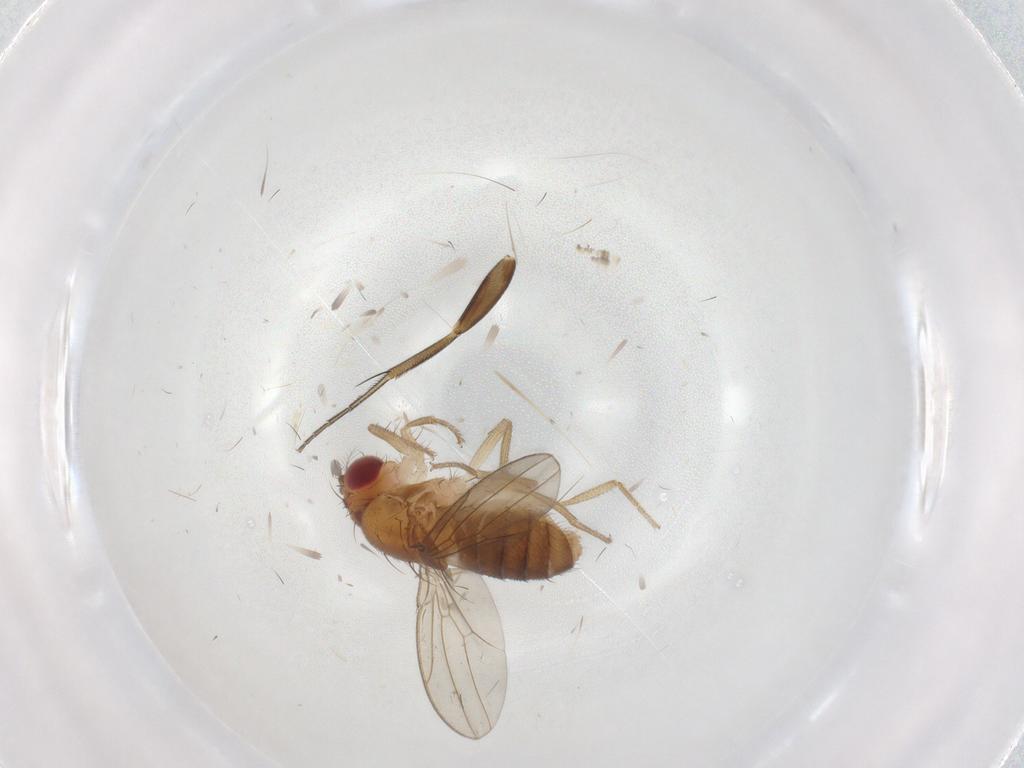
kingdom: Animalia
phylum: Arthropoda
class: Insecta
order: Diptera
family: Drosophilidae
